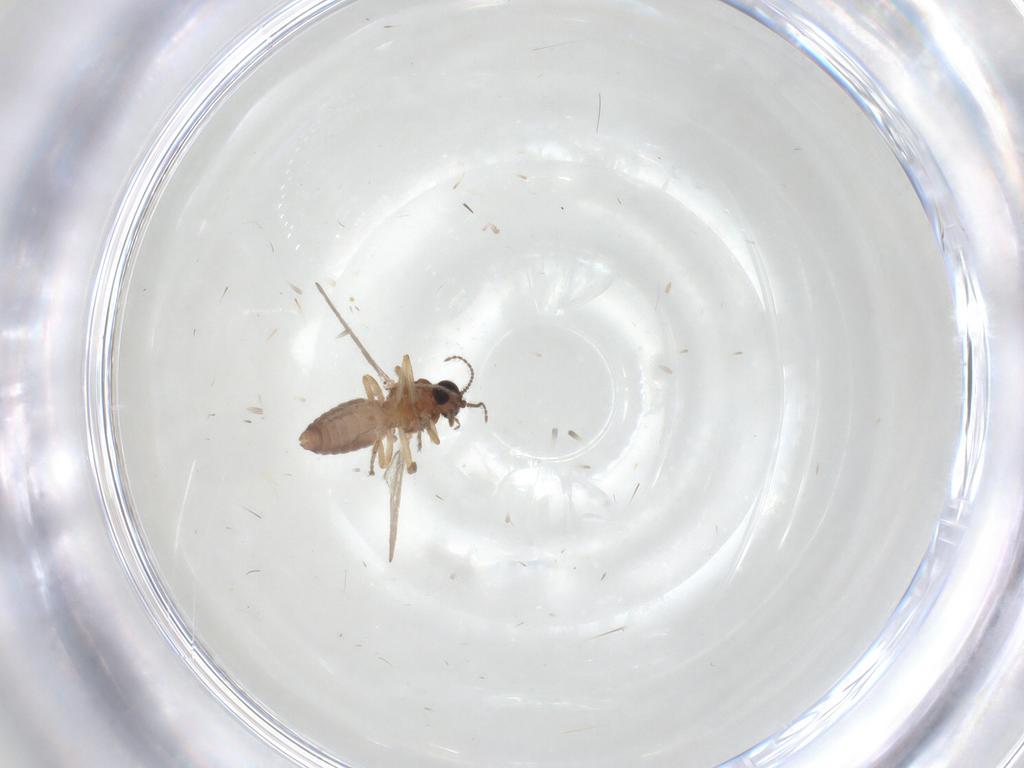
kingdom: Animalia
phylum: Arthropoda
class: Insecta
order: Diptera
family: Ceratopogonidae
